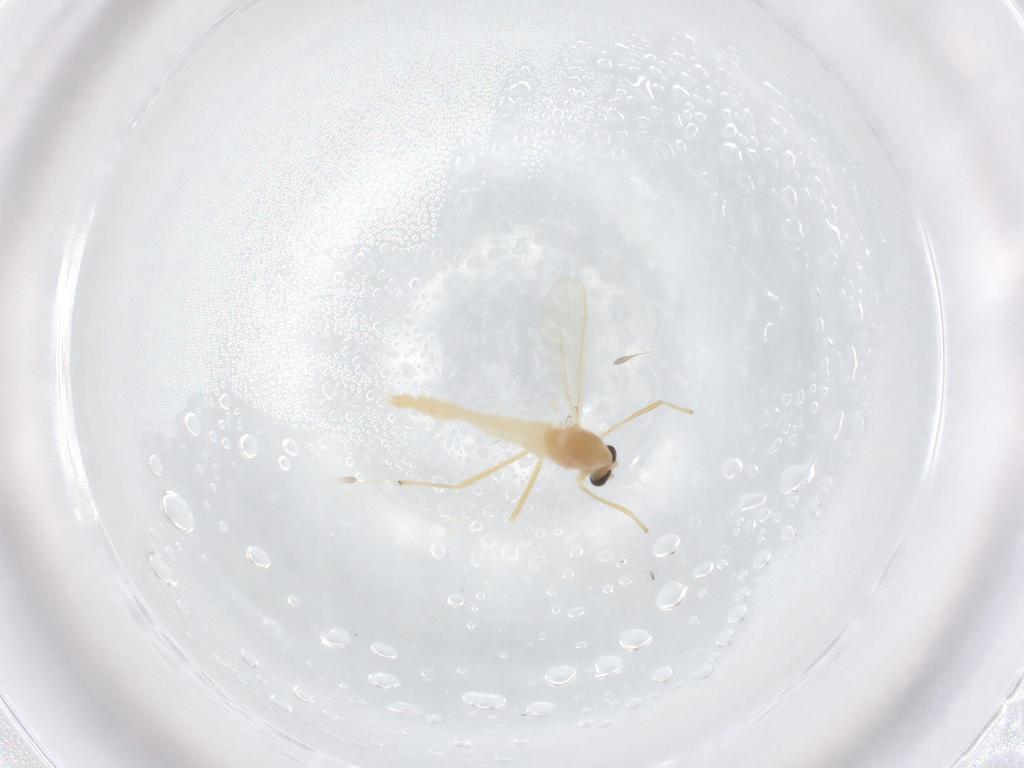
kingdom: Animalia
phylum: Arthropoda
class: Insecta
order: Diptera
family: Chironomidae
